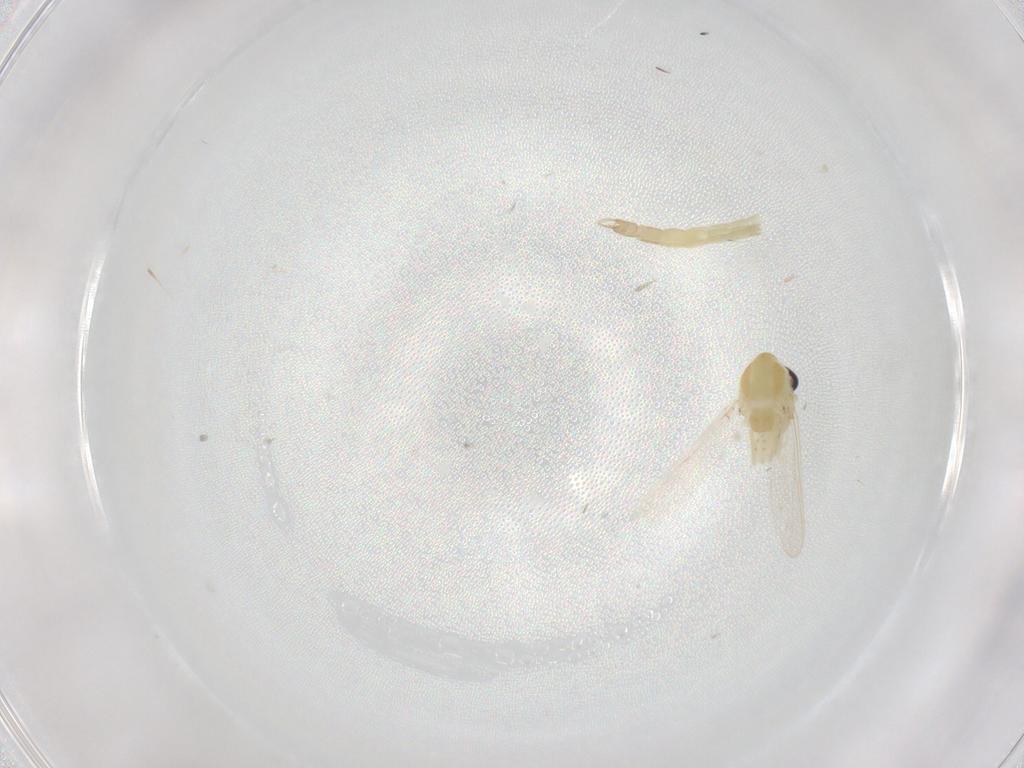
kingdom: Animalia
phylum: Arthropoda
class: Insecta
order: Diptera
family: Chironomidae
